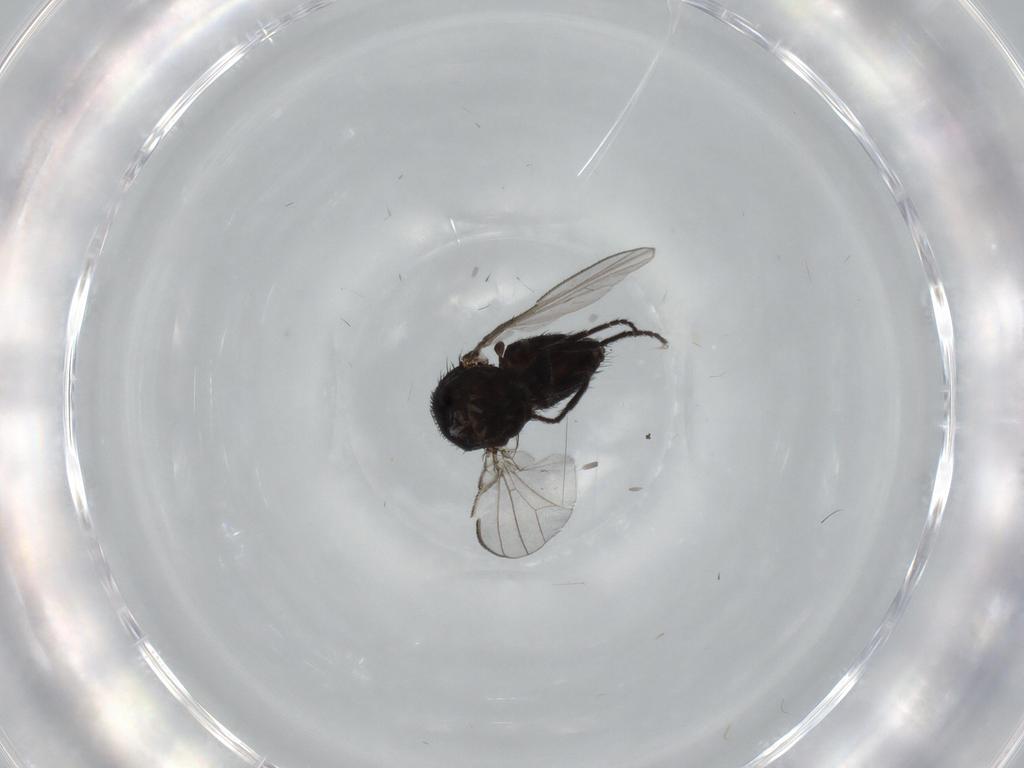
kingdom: Animalia
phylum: Arthropoda
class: Insecta
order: Diptera
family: Milichiidae
